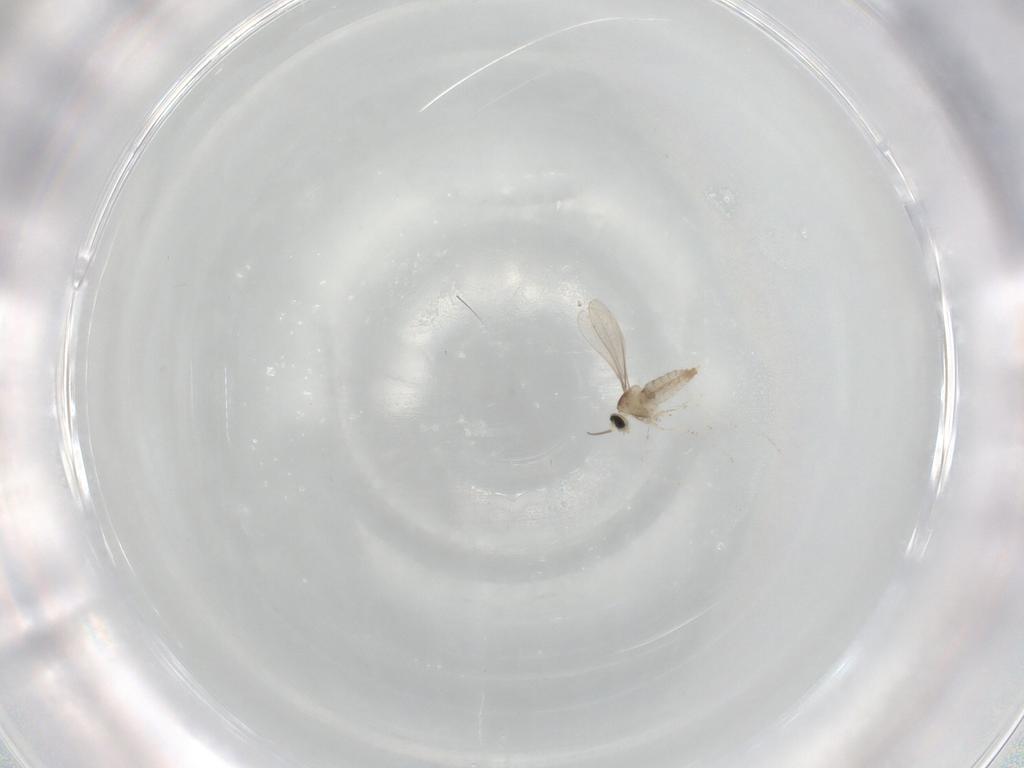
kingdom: Animalia
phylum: Arthropoda
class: Insecta
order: Diptera
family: Cecidomyiidae
